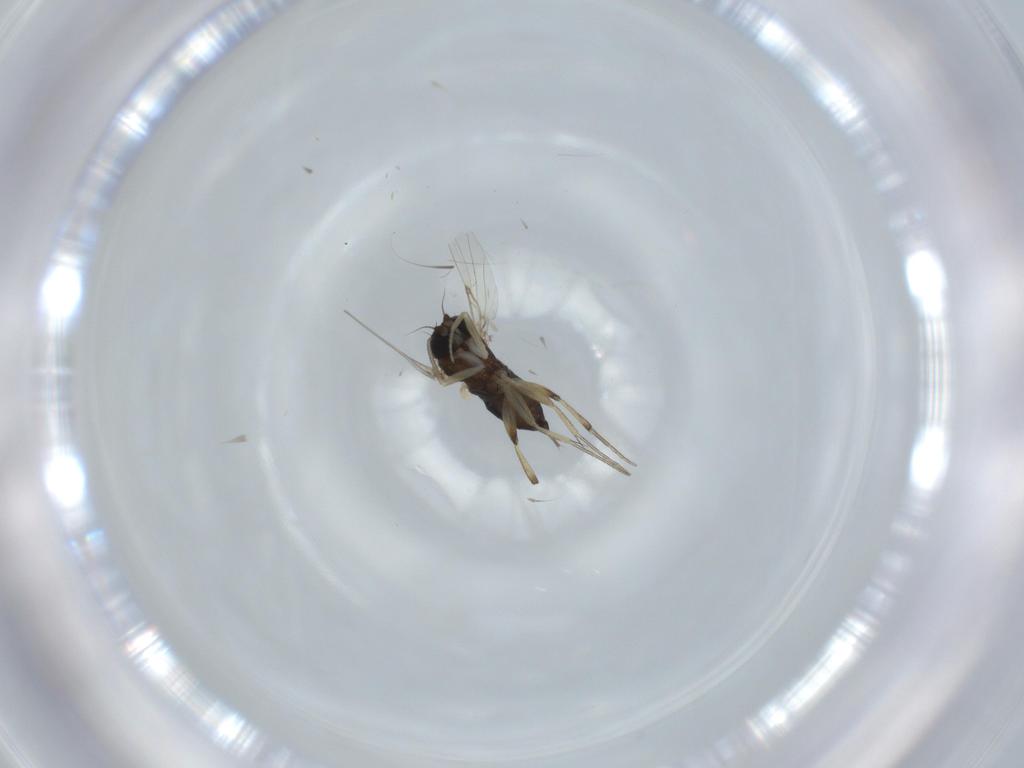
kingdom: Animalia
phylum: Arthropoda
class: Insecta
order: Diptera
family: Phoridae
